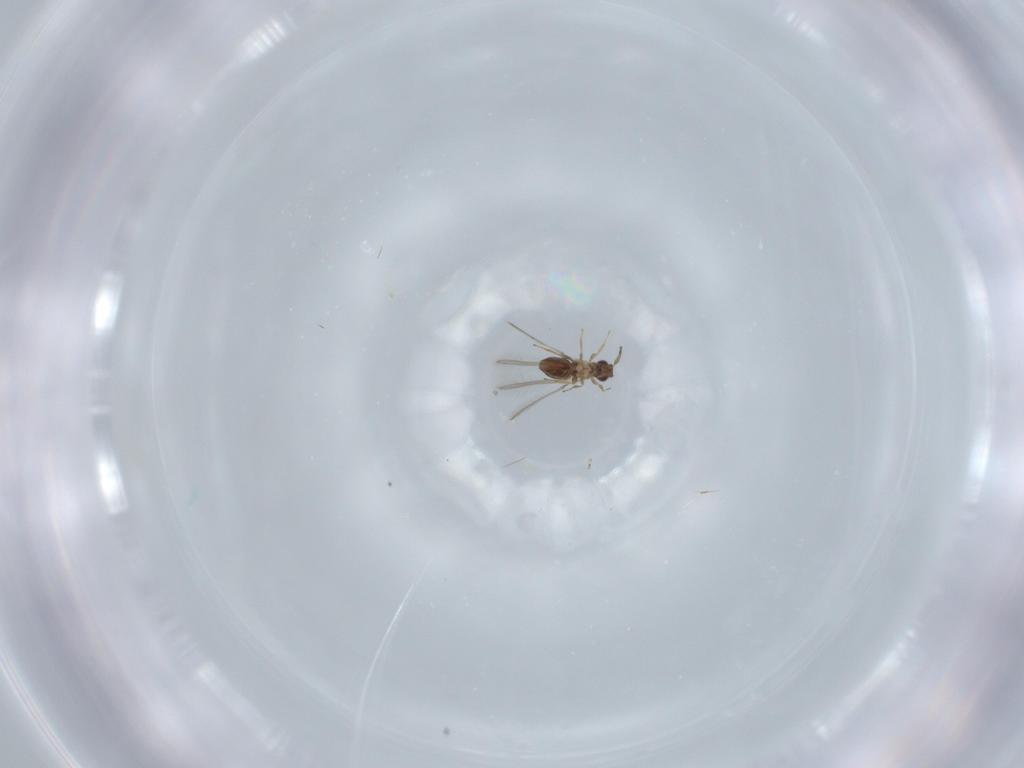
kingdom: Animalia
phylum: Arthropoda
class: Insecta
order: Hymenoptera
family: Mymaridae
